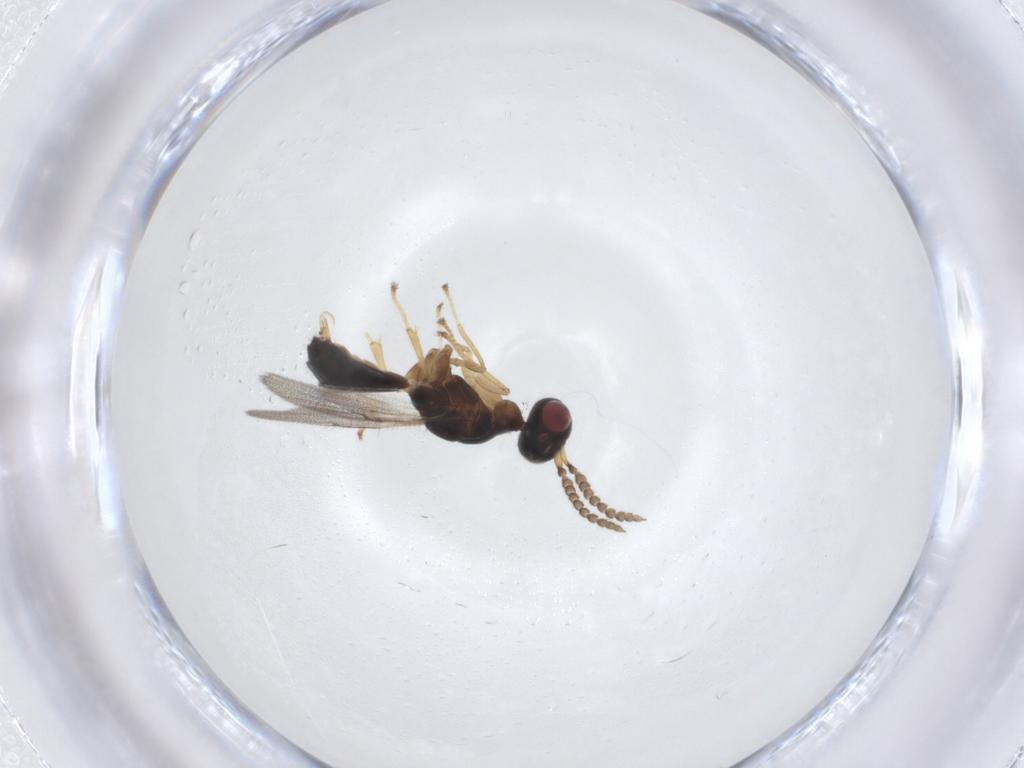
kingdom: Animalia
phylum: Arthropoda
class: Insecta
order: Hymenoptera
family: Agaonidae
